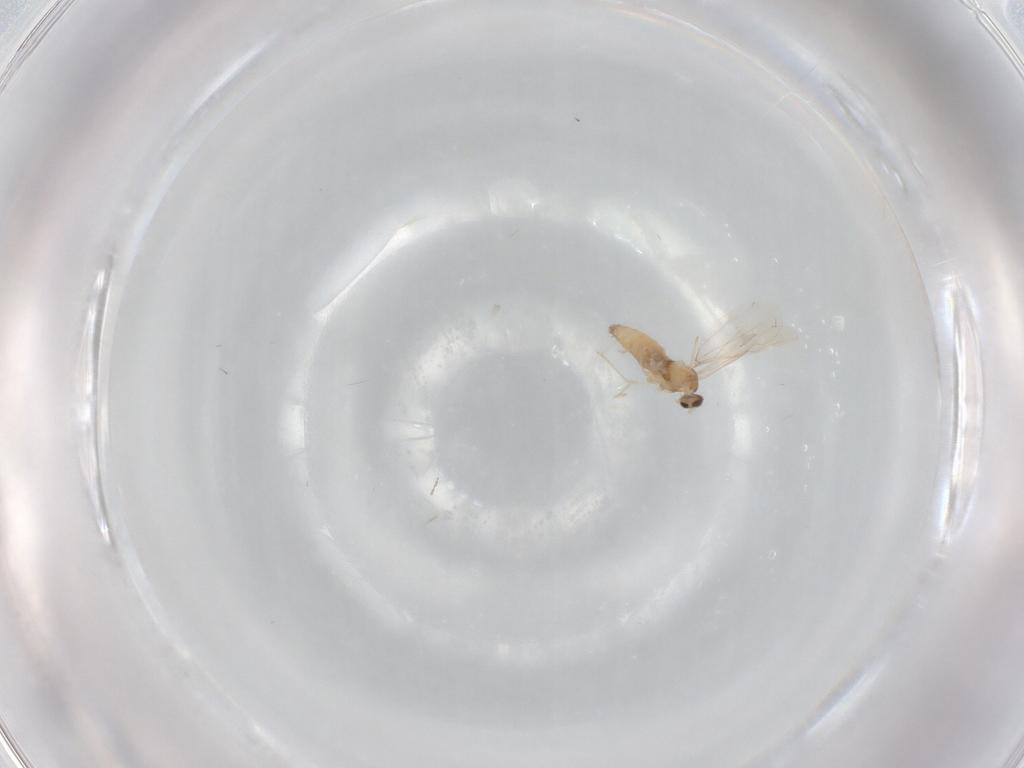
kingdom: Animalia
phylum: Arthropoda
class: Insecta
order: Diptera
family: Cecidomyiidae
